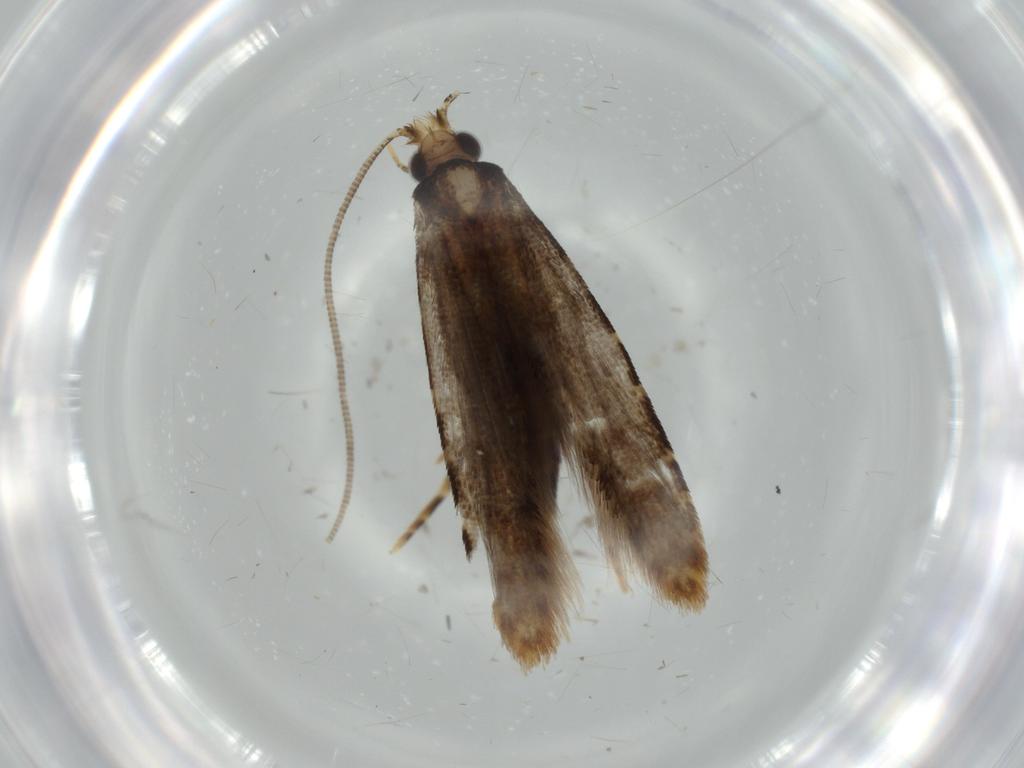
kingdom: Animalia
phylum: Arthropoda
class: Insecta
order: Lepidoptera
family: Tineidae
